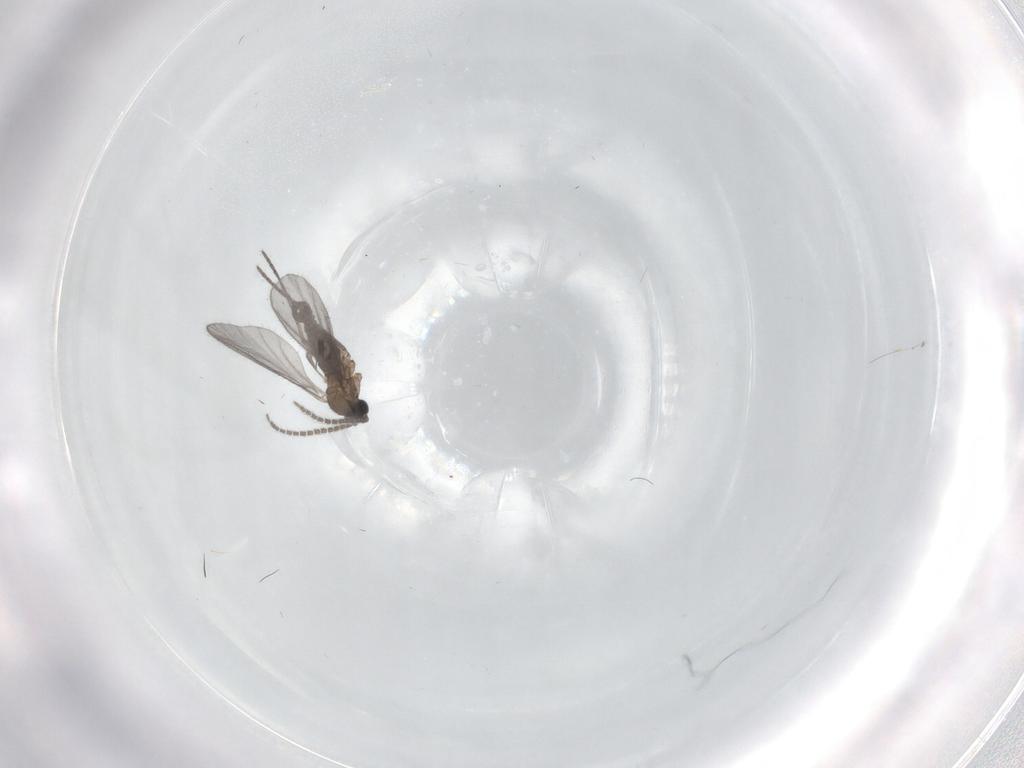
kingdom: Animalia
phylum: Arthropoda
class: Insecta
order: Diptera
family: Sciaridae
